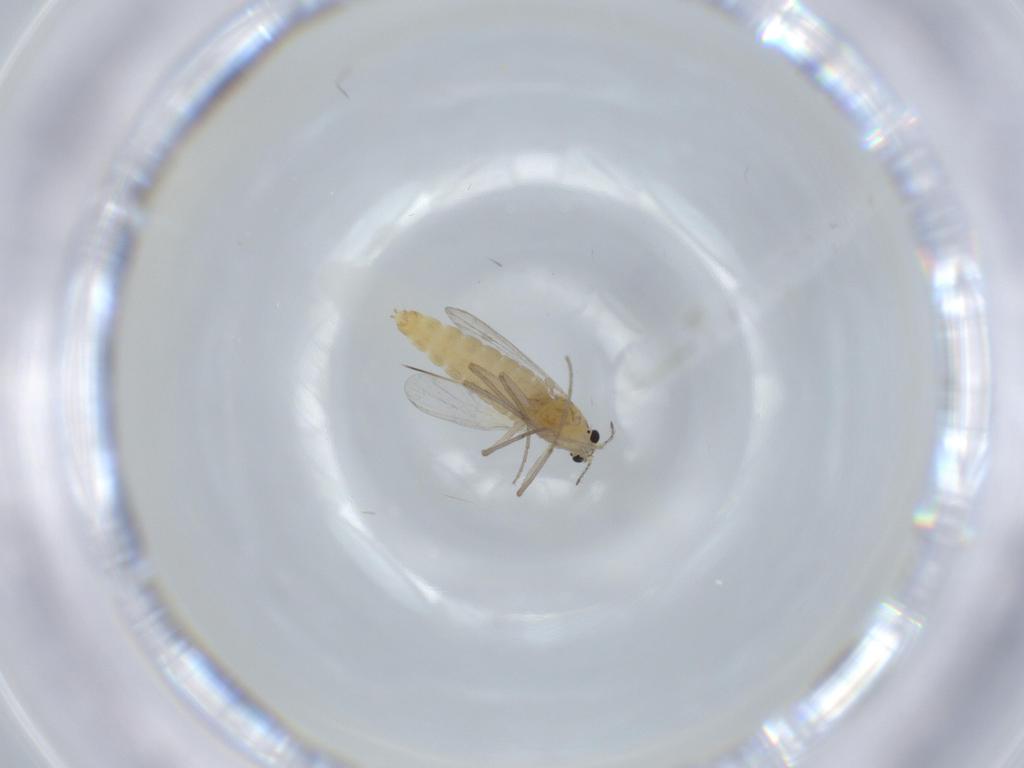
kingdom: Animalia
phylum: Arthropoda
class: Insecta
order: Diptera
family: Chironomidae
